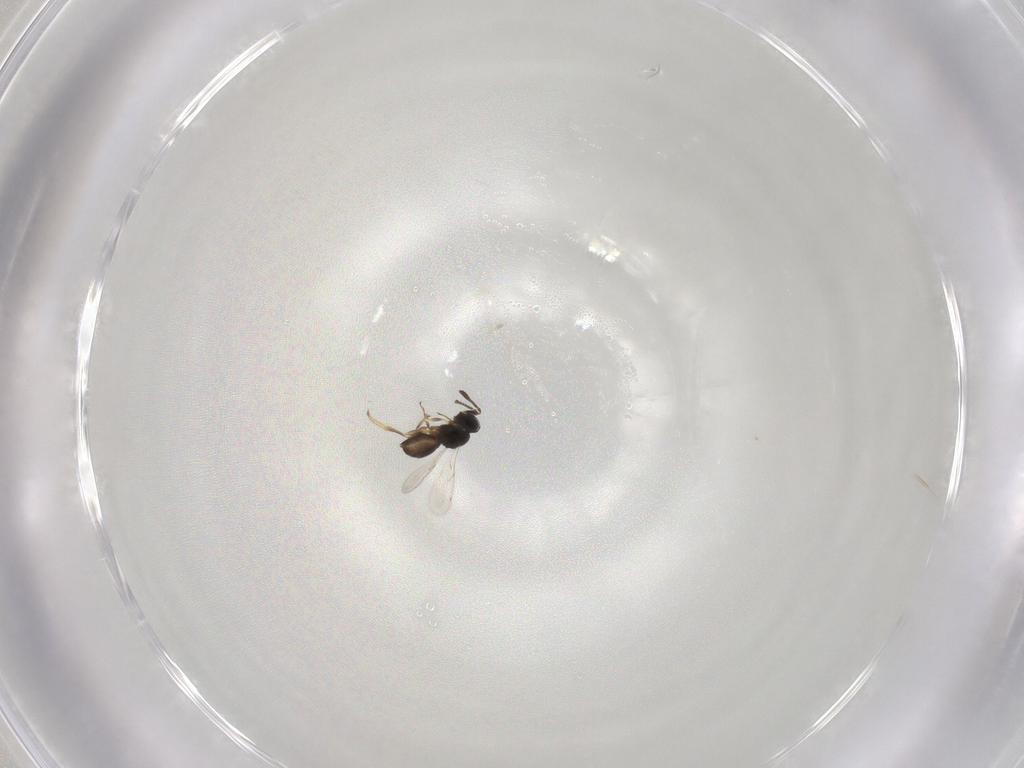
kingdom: Animalia
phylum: Arthropoda
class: Insecta
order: Hymenoptera
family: Scelionidae
